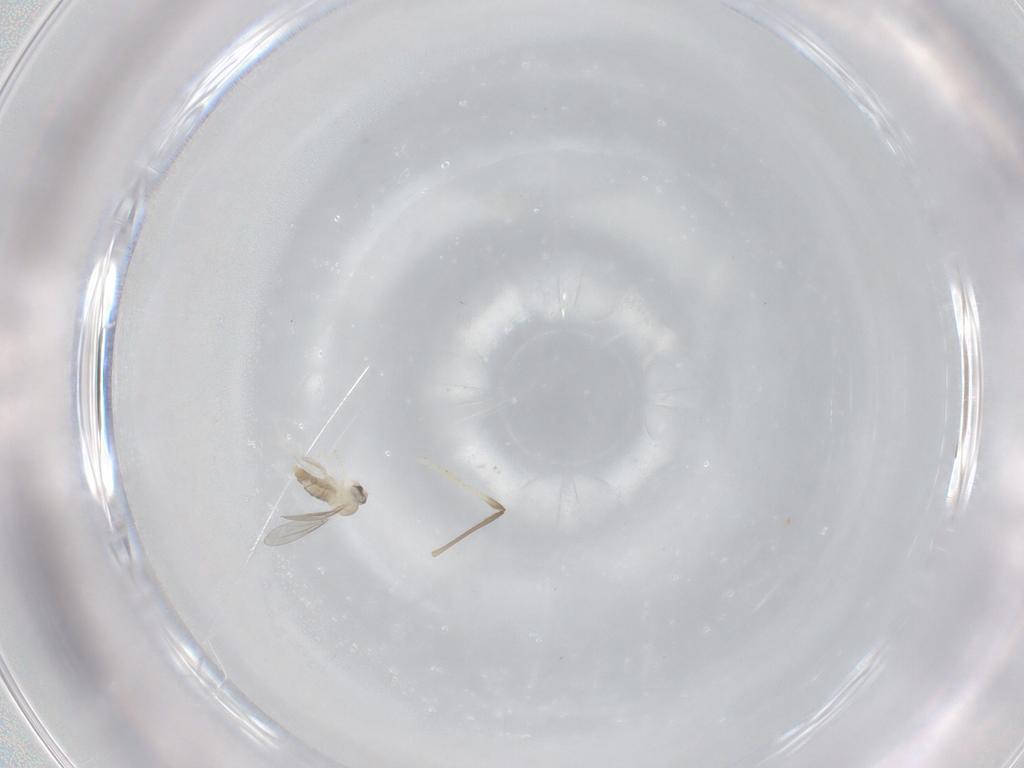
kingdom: Animalia
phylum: Arthropoda
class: Insecta
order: Diptera
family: Cecidomyiidae
